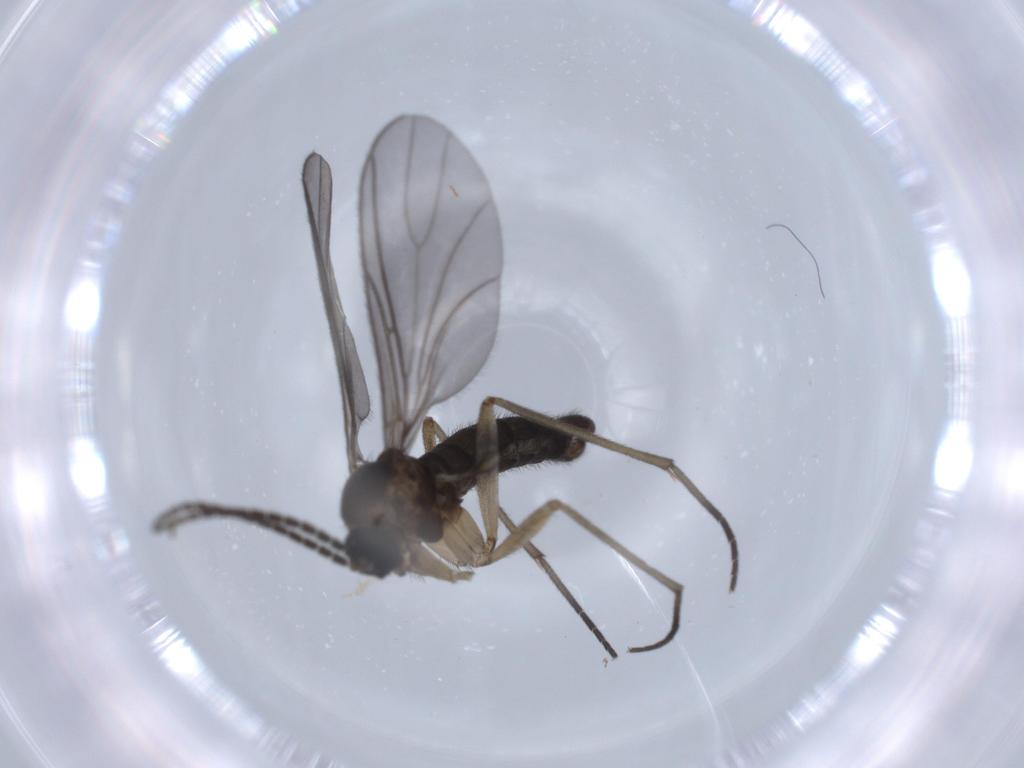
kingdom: Animalia
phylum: Arthropoda
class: Insecta
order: Diptera
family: Sciaridae
